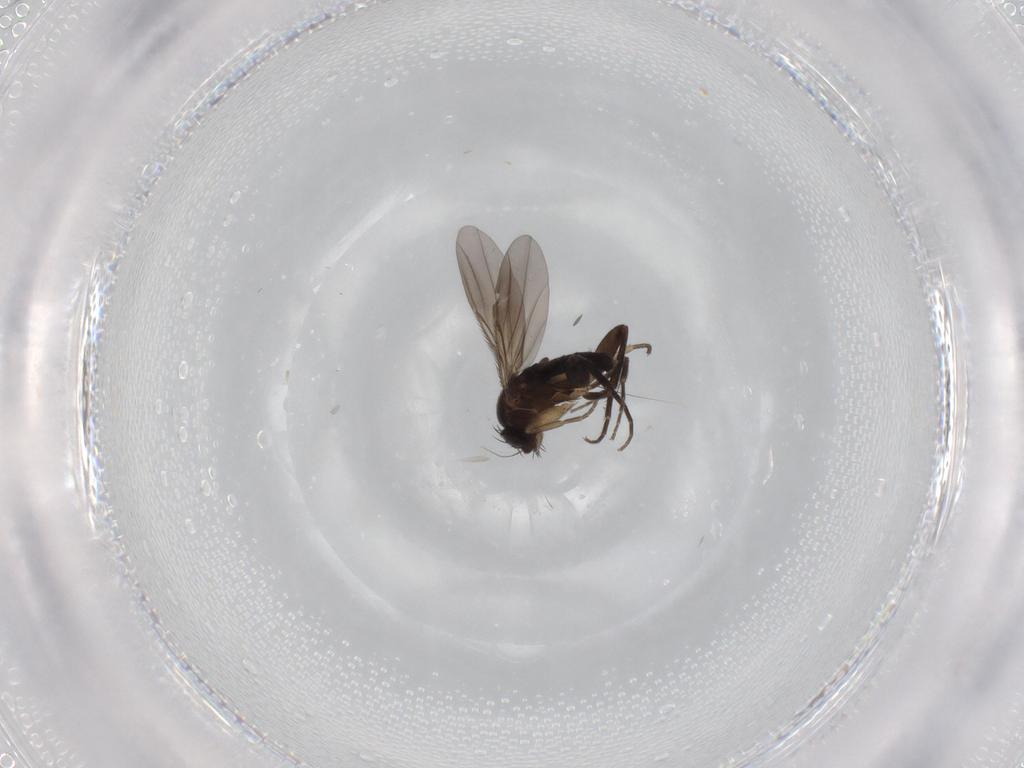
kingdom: Animalia
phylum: Arthropoda
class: Insecta
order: Diptera
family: Phoridae
